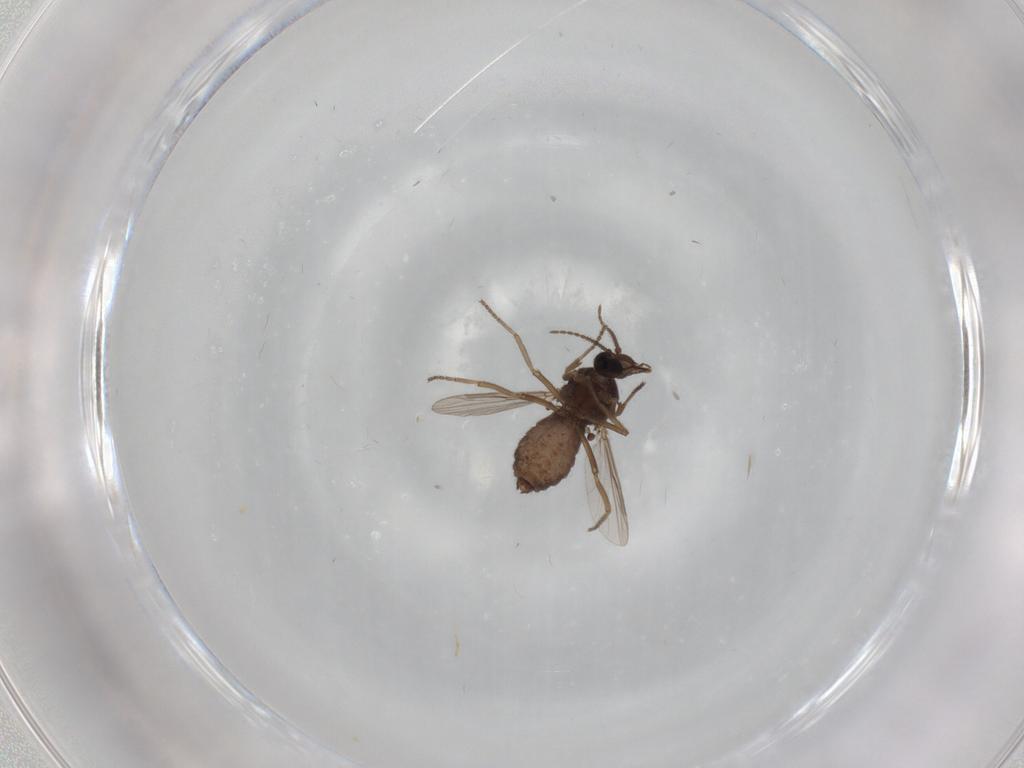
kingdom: Animalia
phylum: Arthropoda
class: Insecta
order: Diptera
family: Ceratopogonidae
